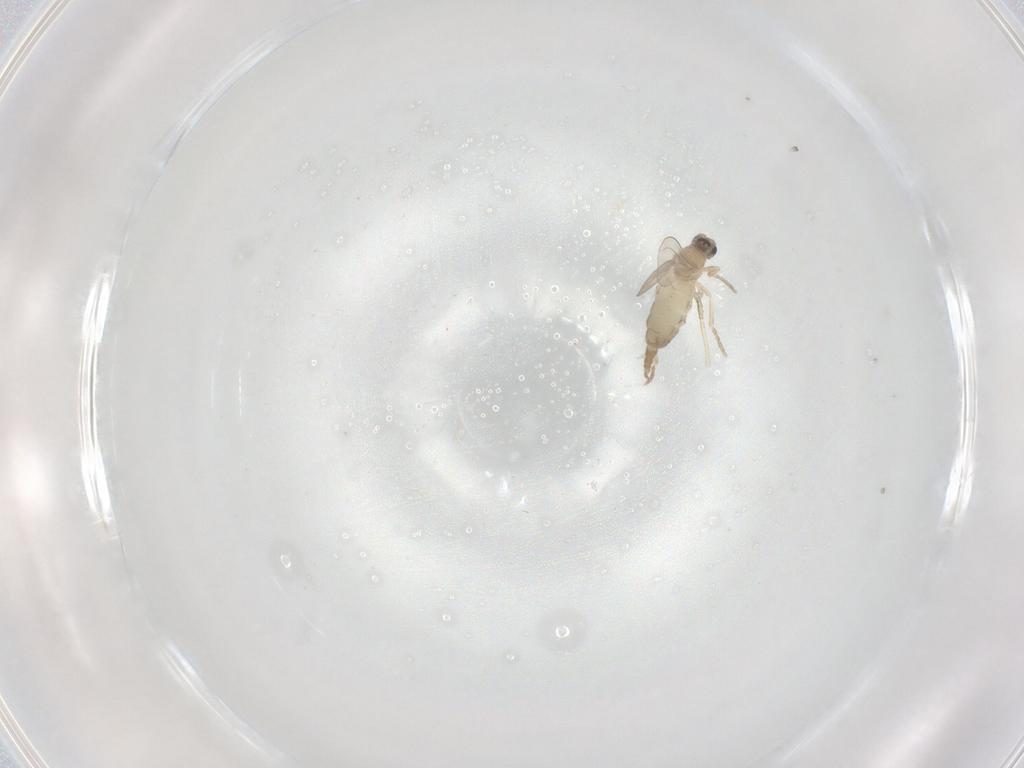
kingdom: Animalia
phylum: Arthropoda
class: Insecta
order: Diptera
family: Cecidomyiidae
